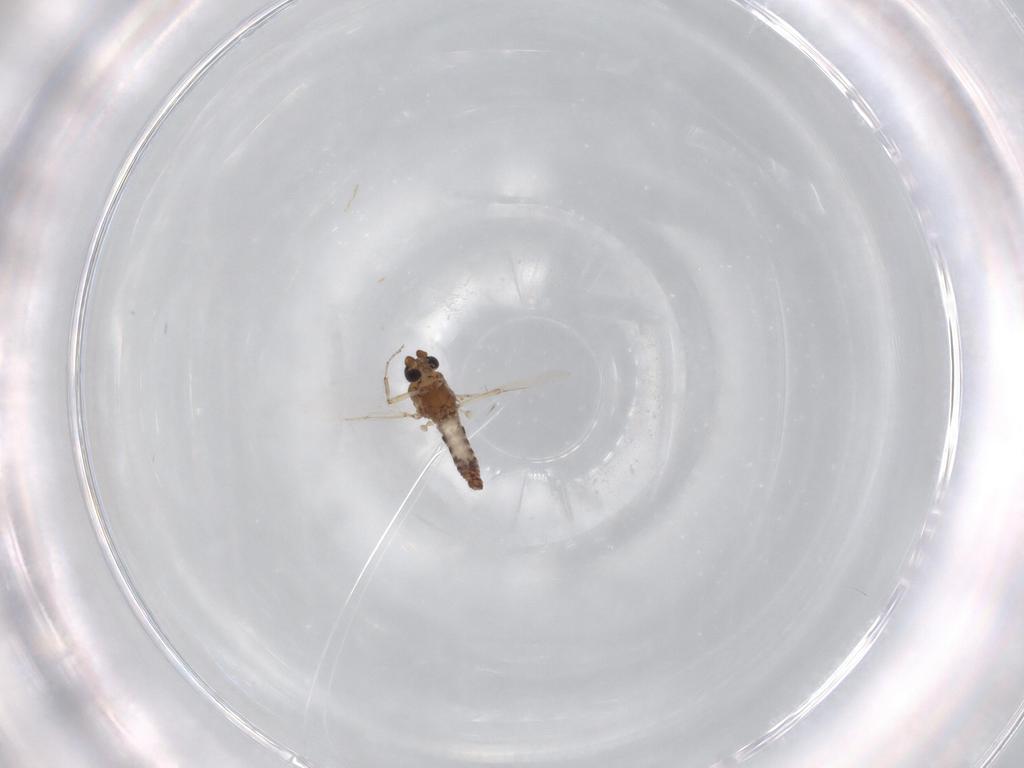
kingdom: Animalia
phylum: Arthropoda
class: Insecta
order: Diptera
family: Ceratopogonidae
